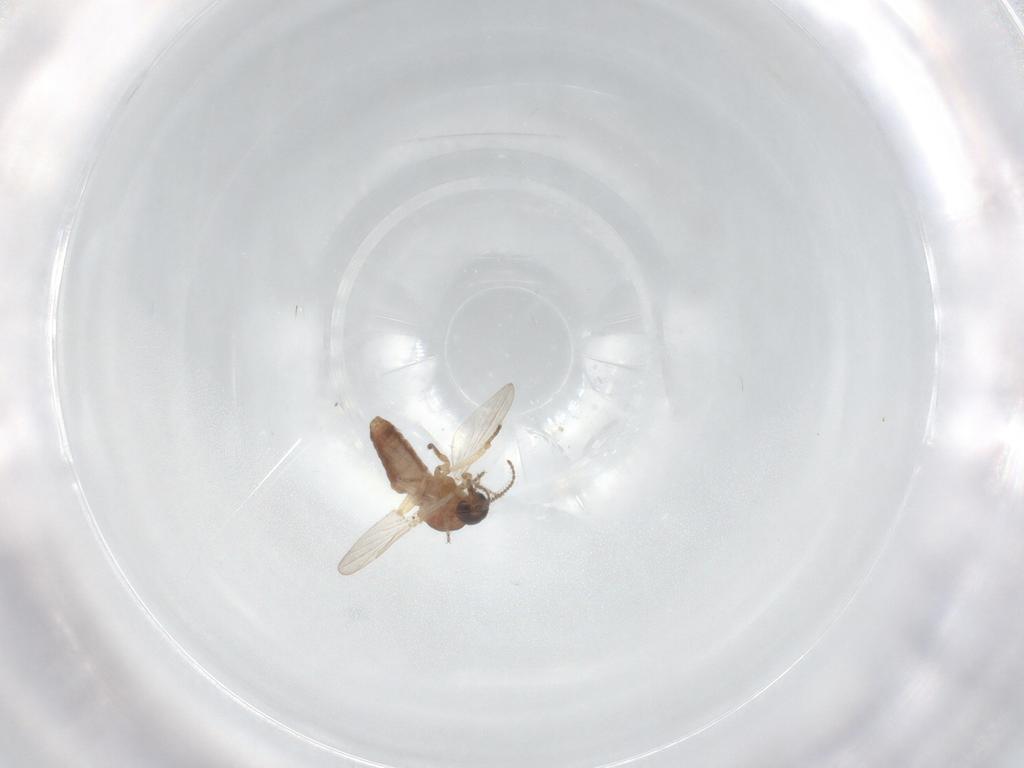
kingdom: Animalia
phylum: Arthropoda
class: Insecta
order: Diptera
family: Ceratopogonidae
